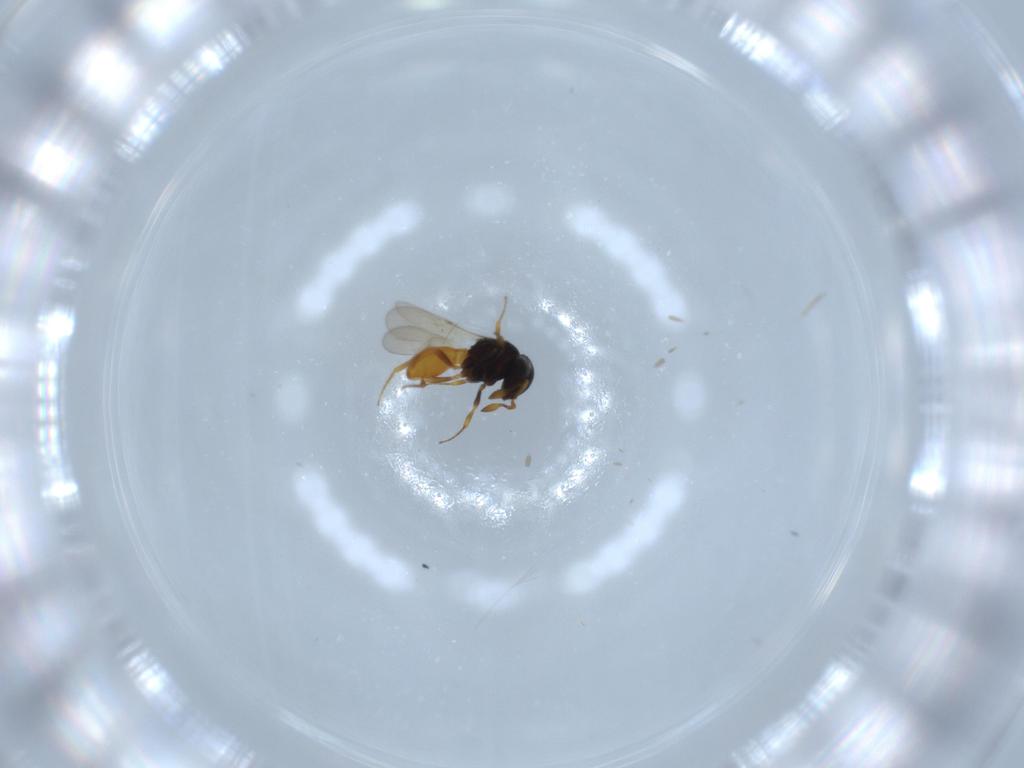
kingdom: Animalia
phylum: Arthropoda
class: Insecta
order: Hymenoptera
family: Scelionidae
